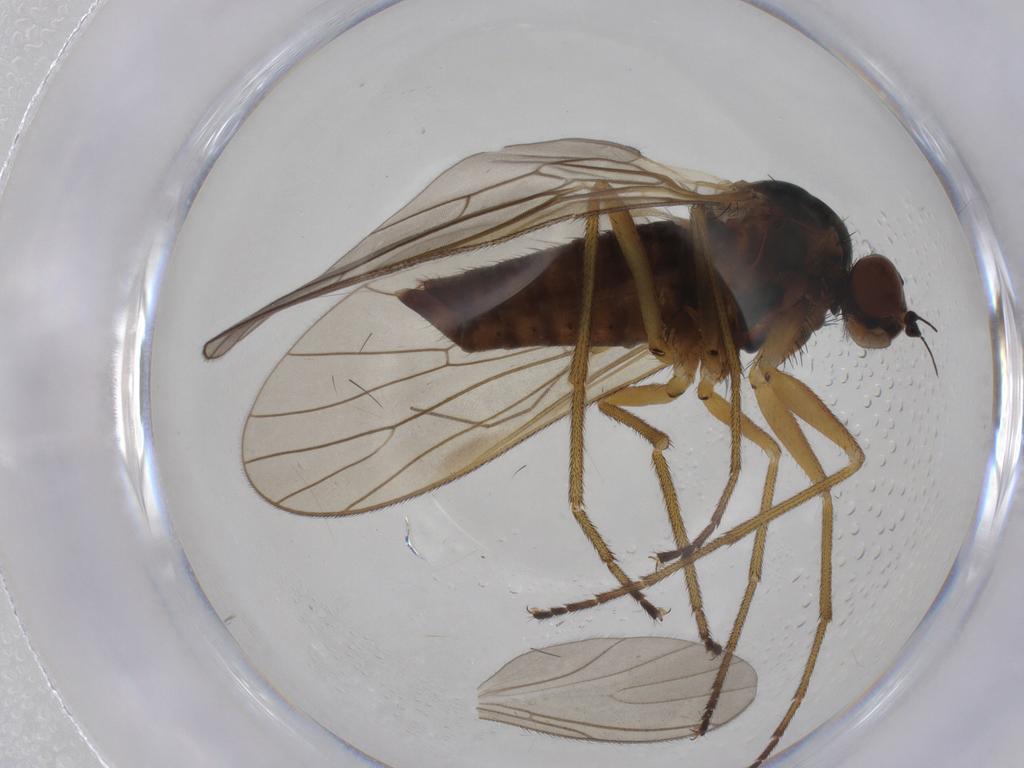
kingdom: Animalia
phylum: Arthropoda
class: Insecta
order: Diptera
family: Brachystomatidae
